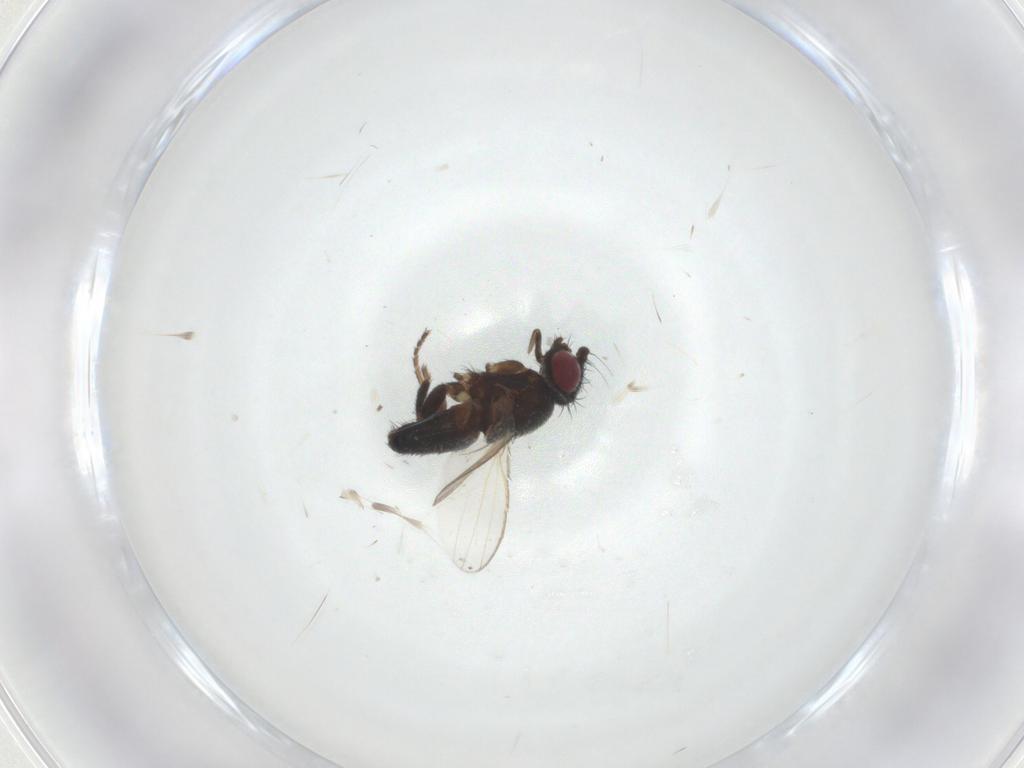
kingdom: Animalia
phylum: Arthropoda
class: Insecta
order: Diptera
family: Milichiidae
